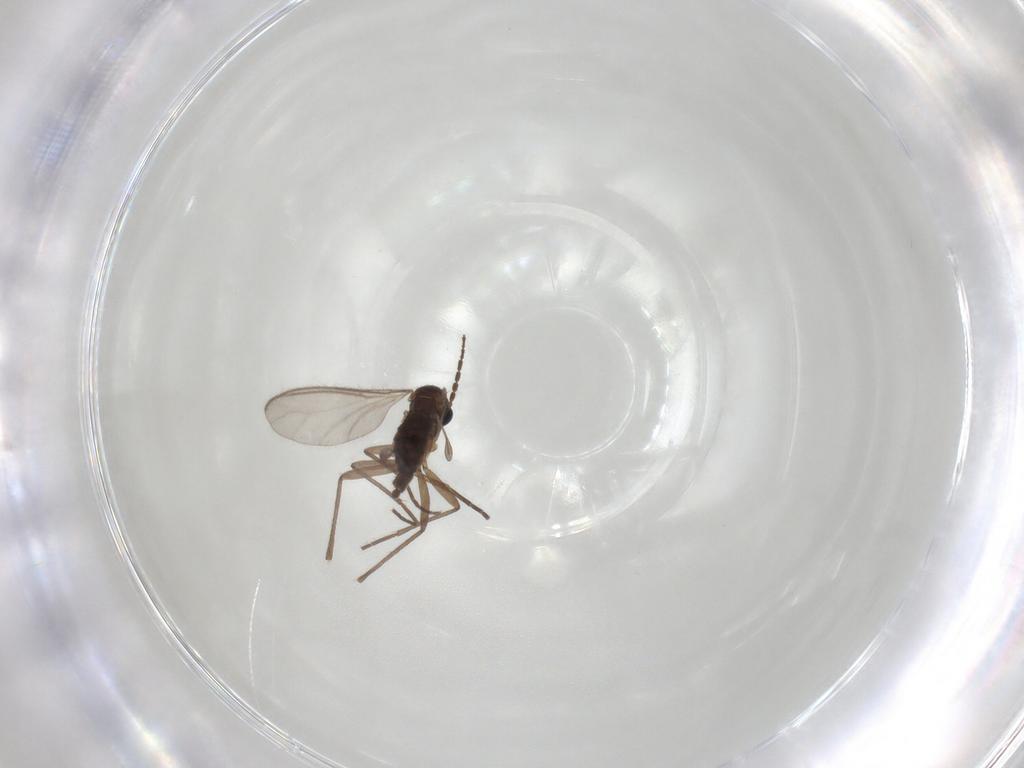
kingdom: Animalia
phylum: Arthropoda
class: Insecta
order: Diptera
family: Sciaridae
